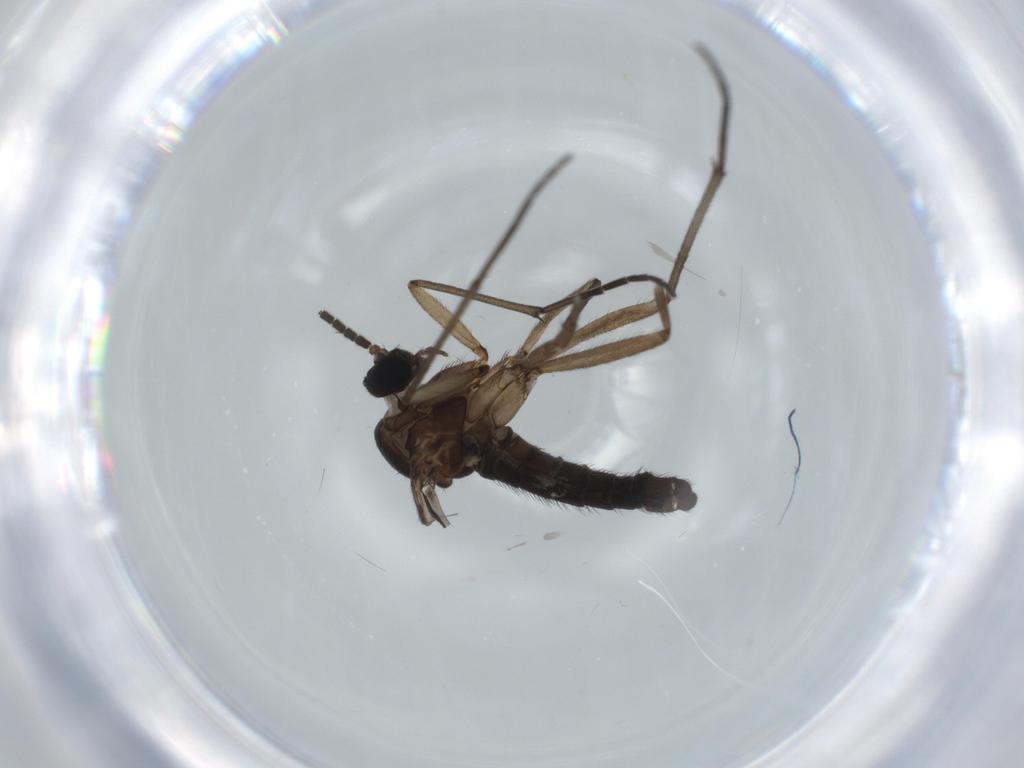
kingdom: Animalia
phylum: Arthropoda
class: Insecta
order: Diptera
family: Sciaridae
